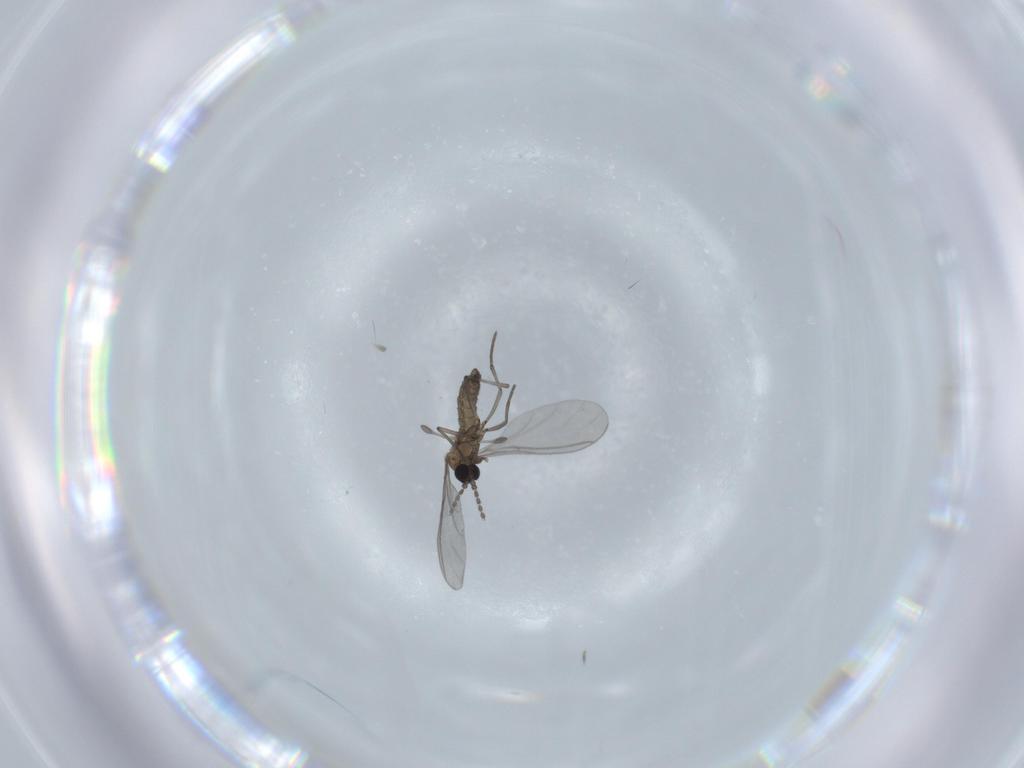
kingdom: Animalia
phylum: Arthropoda
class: Insecta
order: Diptera
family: Sciaridae
